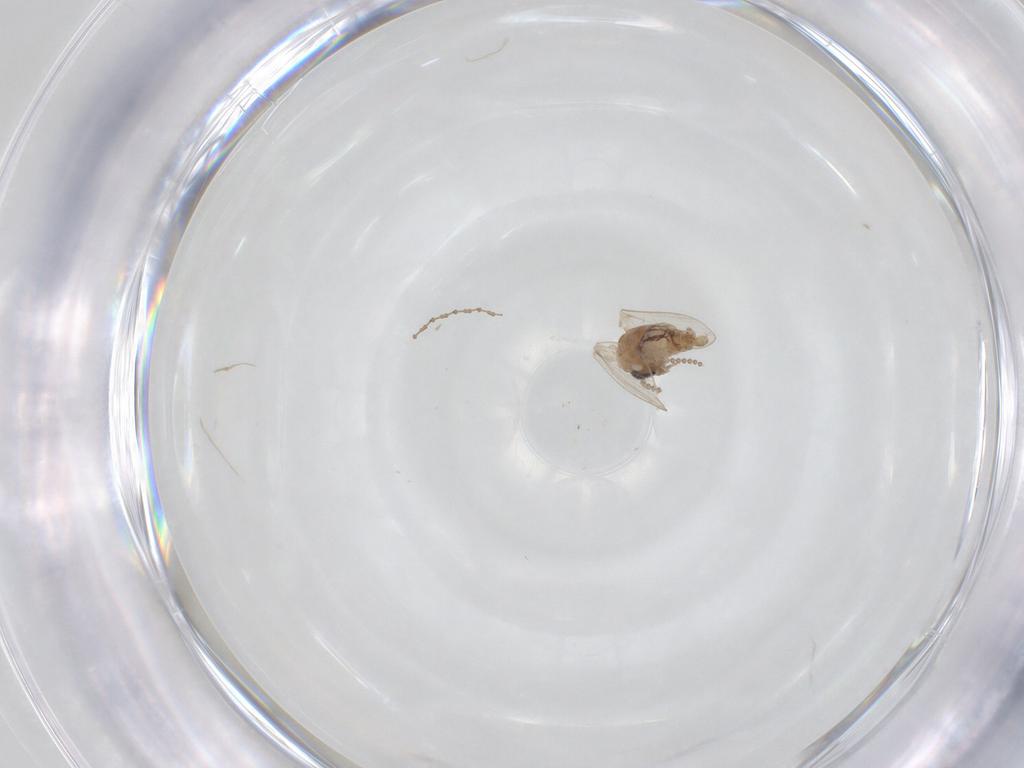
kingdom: Animalia
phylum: Arthropoda
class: Insecta
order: Diptera
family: Cecidomyiidae
